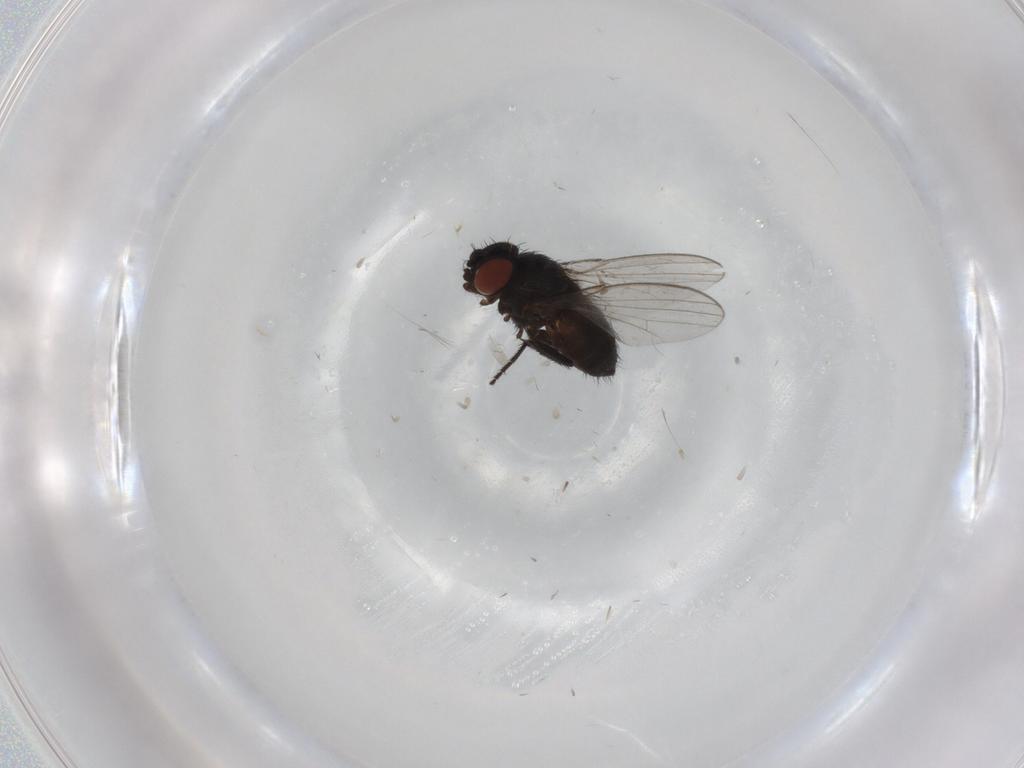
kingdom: Animalia
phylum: Arthropoda
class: Insecta
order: Diptera
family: Milichiidae
